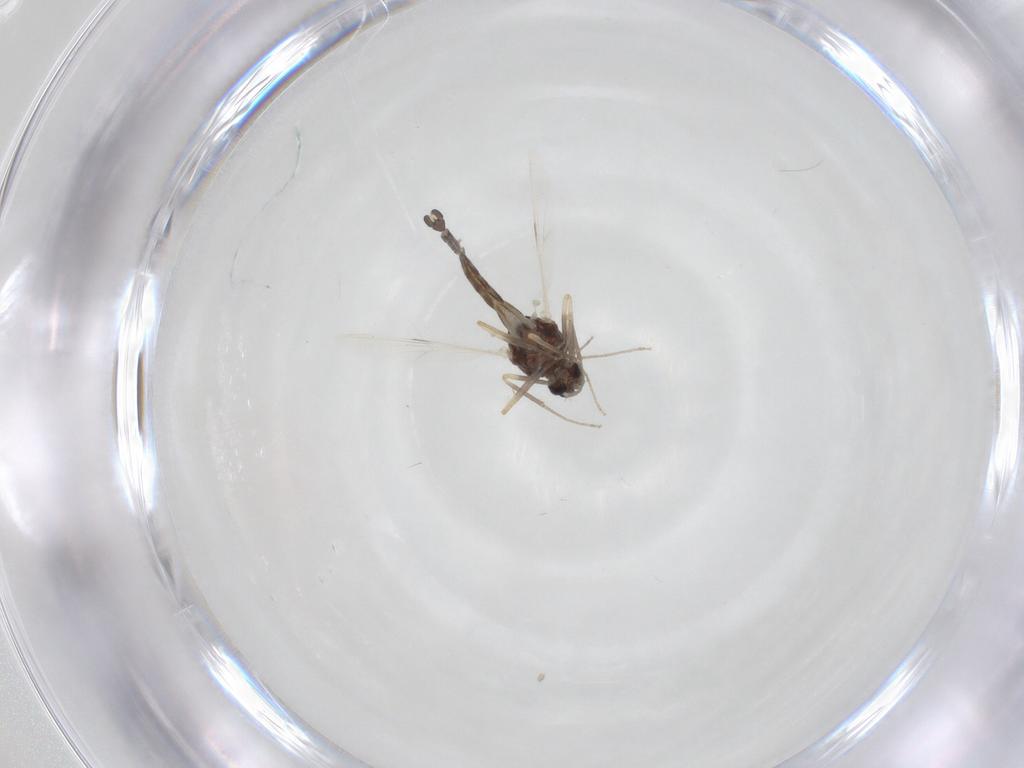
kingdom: Animalia
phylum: Arthropoda
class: Insecta
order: Diptera
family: Ceratopogonidae
